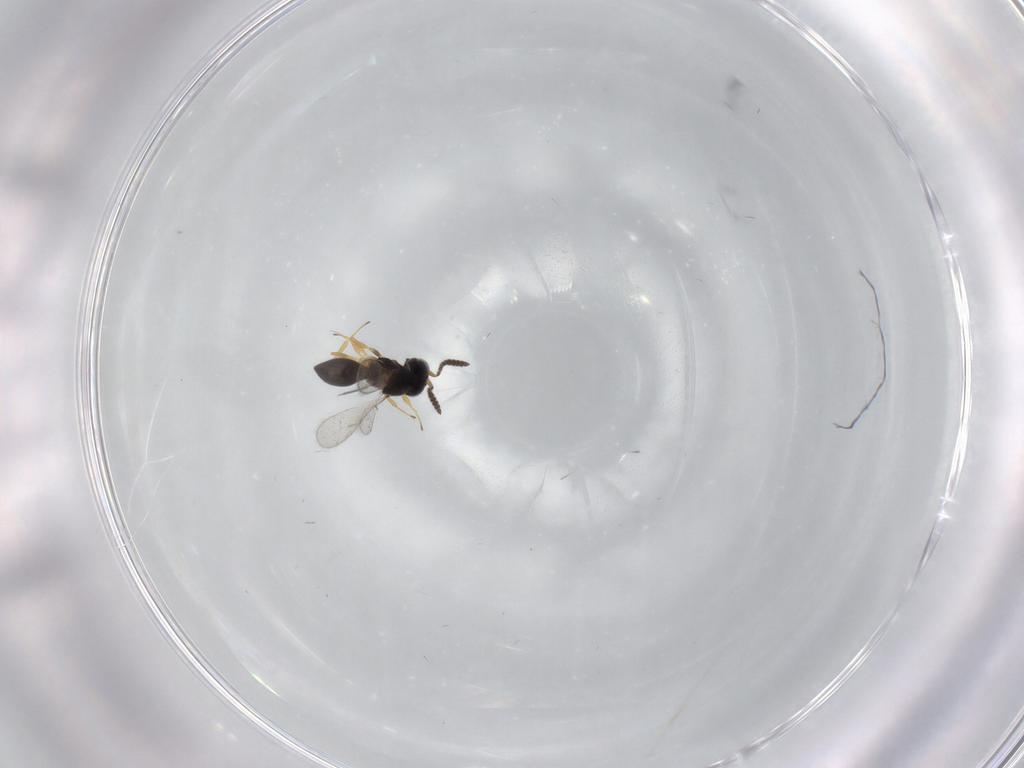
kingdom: Animalia
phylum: Arthropoda
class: Insecta
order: Hymenoptera
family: Scelionidae
